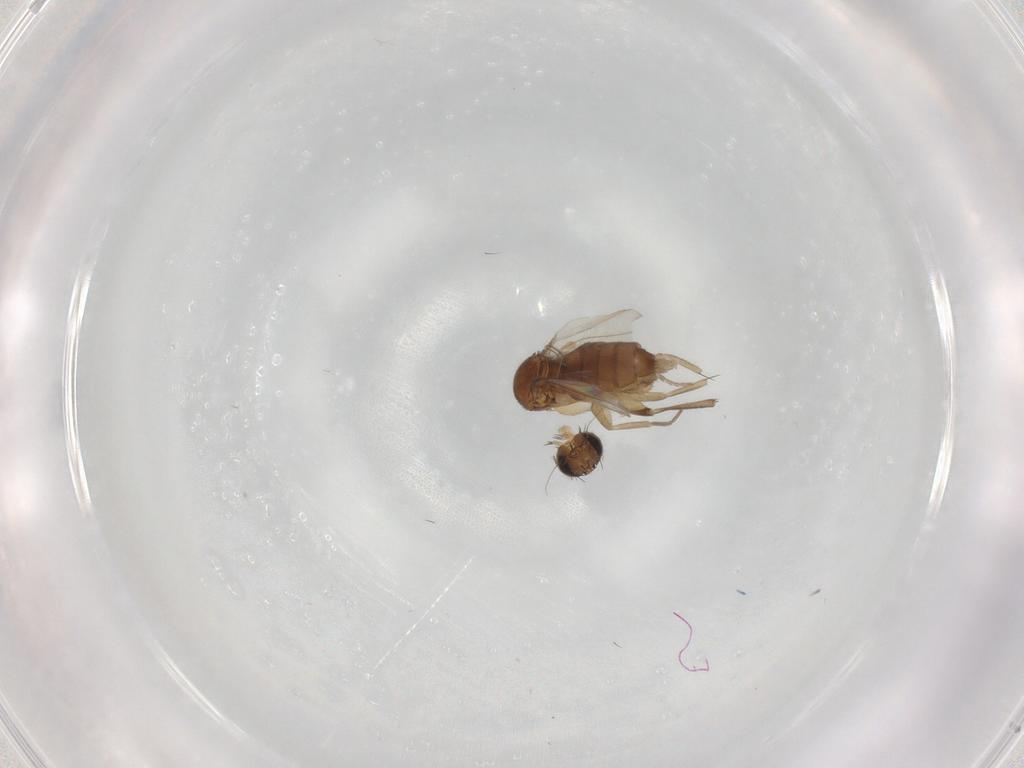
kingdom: Animalia
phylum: Arthropoda
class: Insecta
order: Diptera
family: Phoridae
